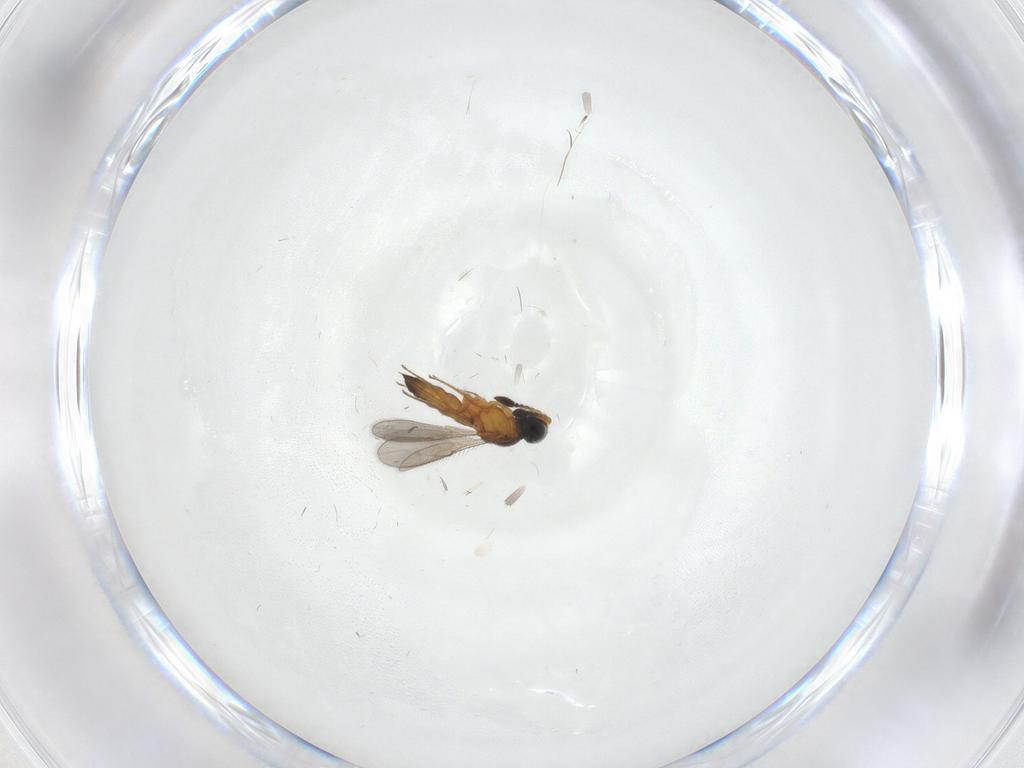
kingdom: Animalia
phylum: Arthropoda
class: Insecta
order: Hymenoptera
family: Scelionidae
